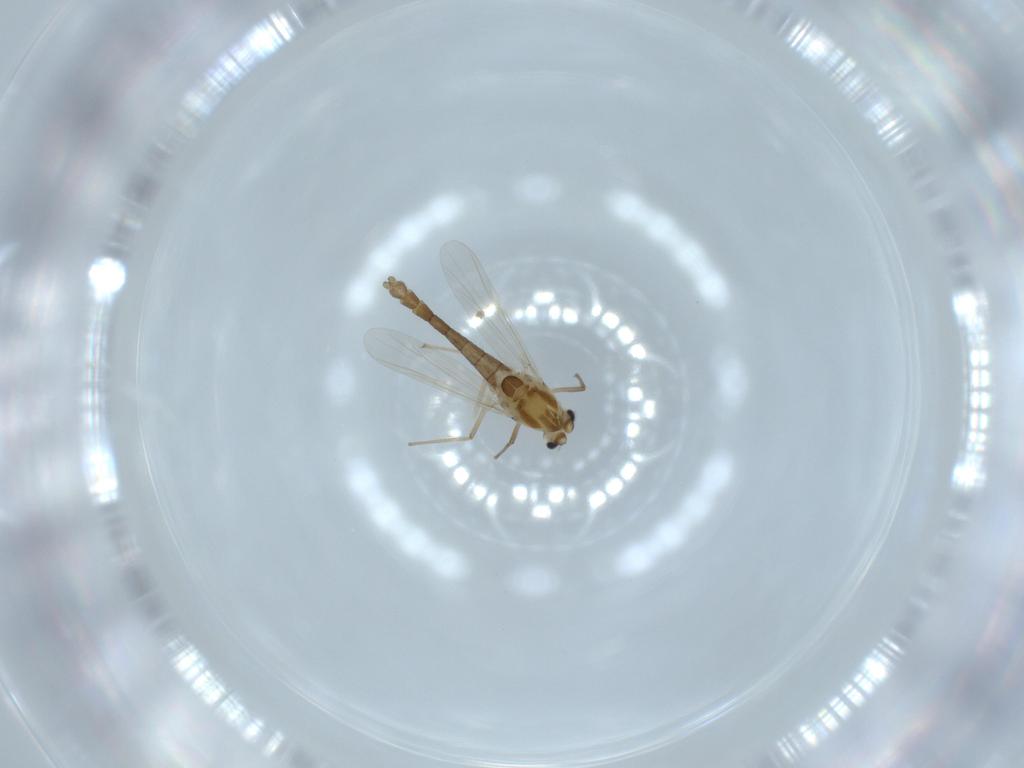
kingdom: Animalia
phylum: Arthropoda
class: Insecta
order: Diptera
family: Chironomidae
